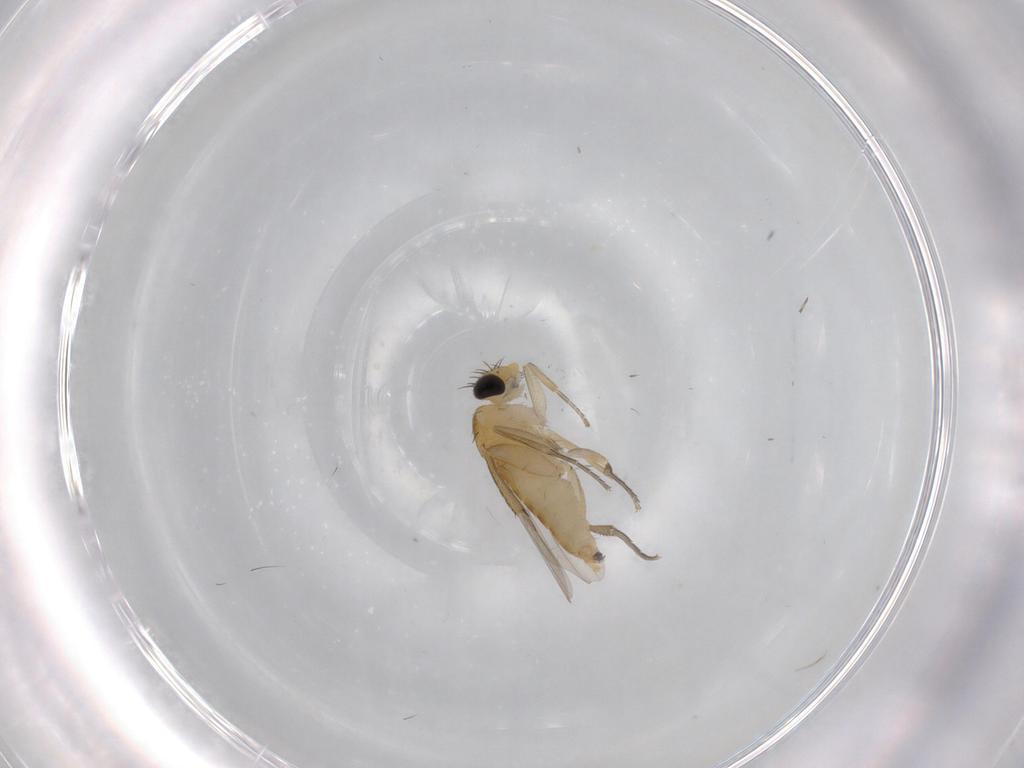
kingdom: Animalia
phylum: Arthropoda
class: Insecta
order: Diptera
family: Phoridae
